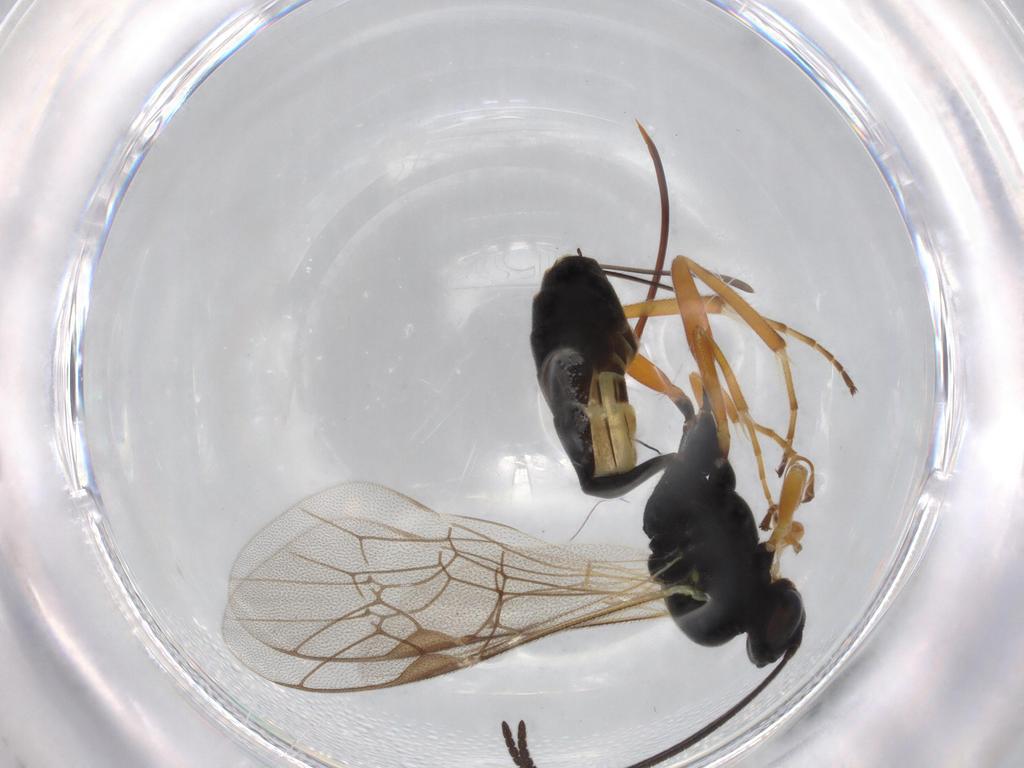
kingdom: Animalia
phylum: Arthropoda
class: Insecta
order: Hymenoptera
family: Ichneumonidae
